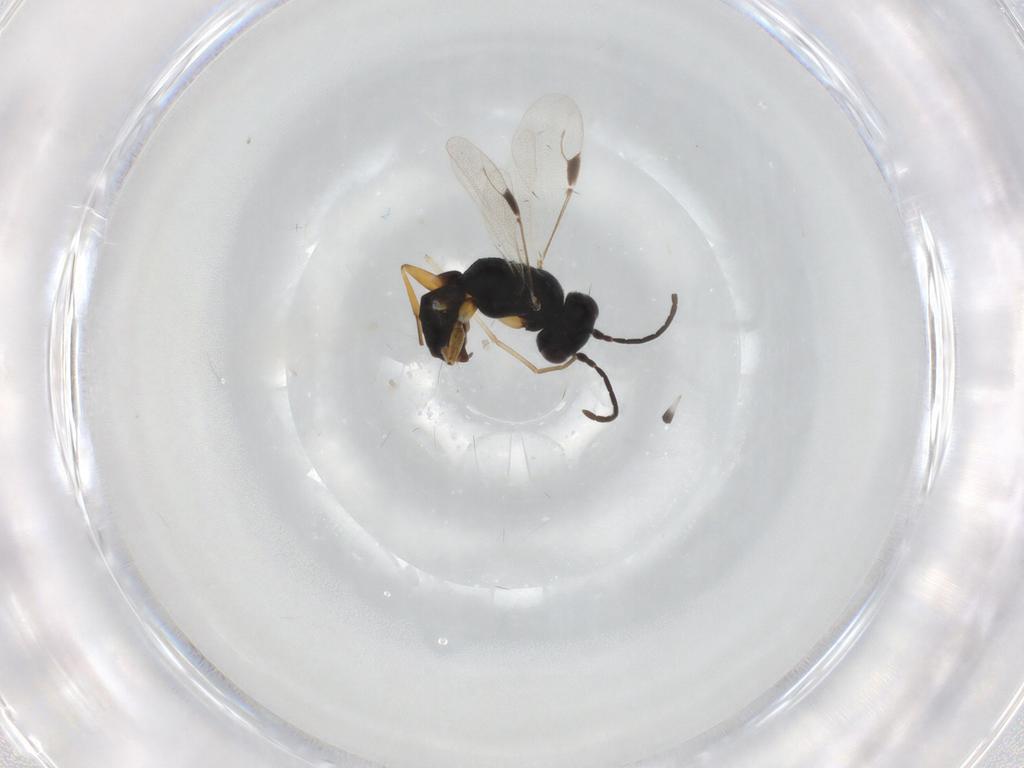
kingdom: Animalia
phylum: Arthropoda
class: Insecta
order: Hymenoptera
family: Dryinidae
